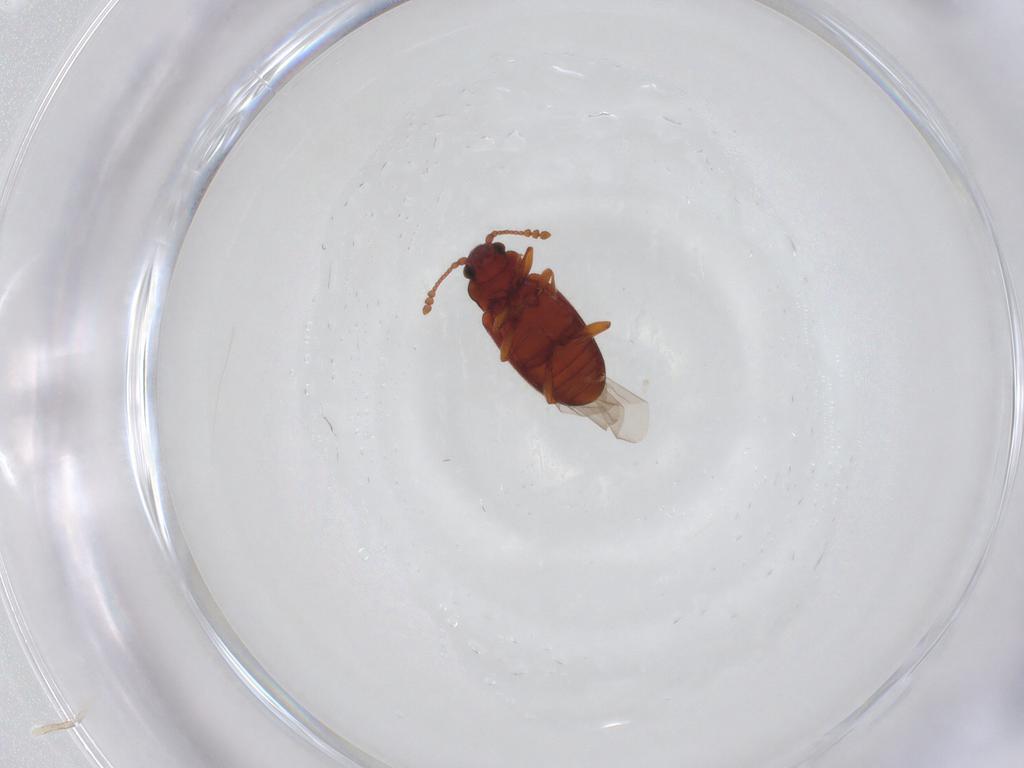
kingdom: Animalia
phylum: Arthropoda
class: Insecta
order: Coleoptera
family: Cryptophagidae
